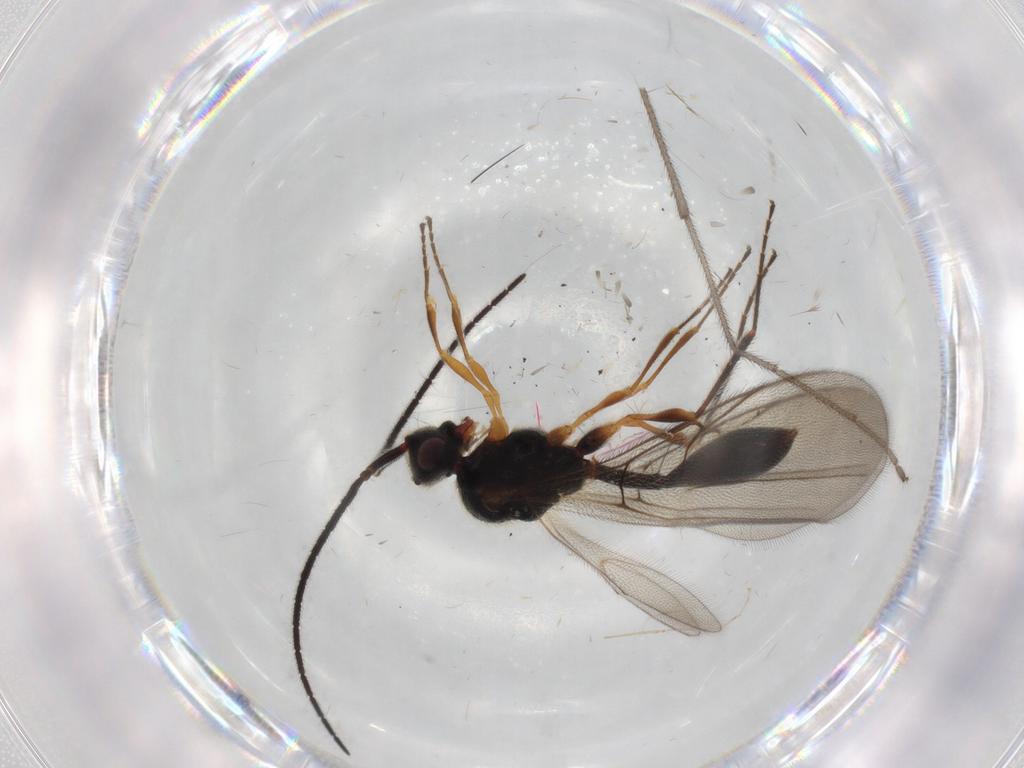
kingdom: Animalia
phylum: Arthropoda
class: Insecta
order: Hymenoptera
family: Diapriidae
